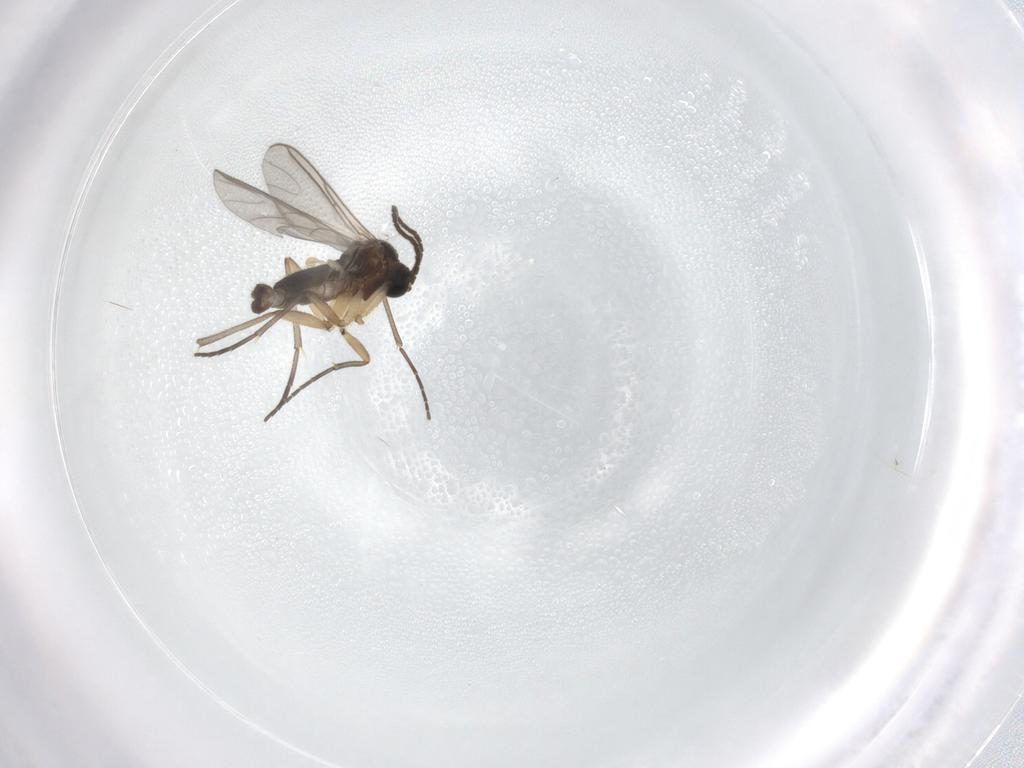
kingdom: Animalia
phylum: Arthropoda
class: Insecta
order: Diptera
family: Sciaridae
